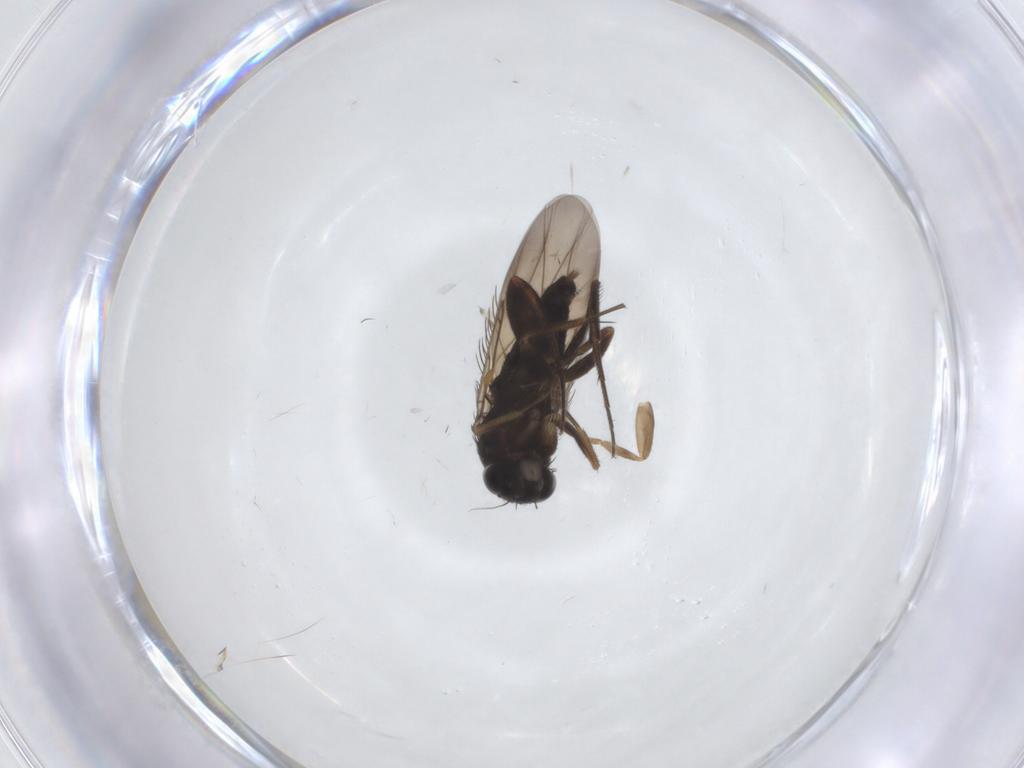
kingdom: Animalia
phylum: Arthropoda
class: Insecta
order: Diptera
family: Phoridae
